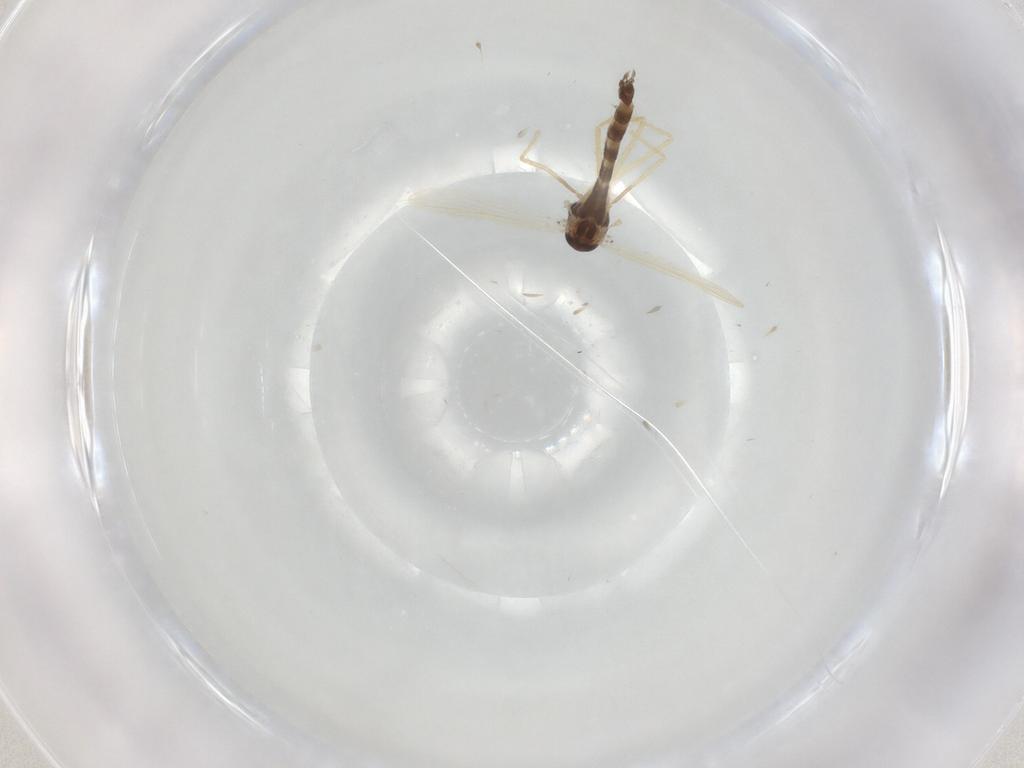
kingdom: Animalia
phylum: Arthropoda
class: Insecta
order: Diptera
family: Chironomidae
